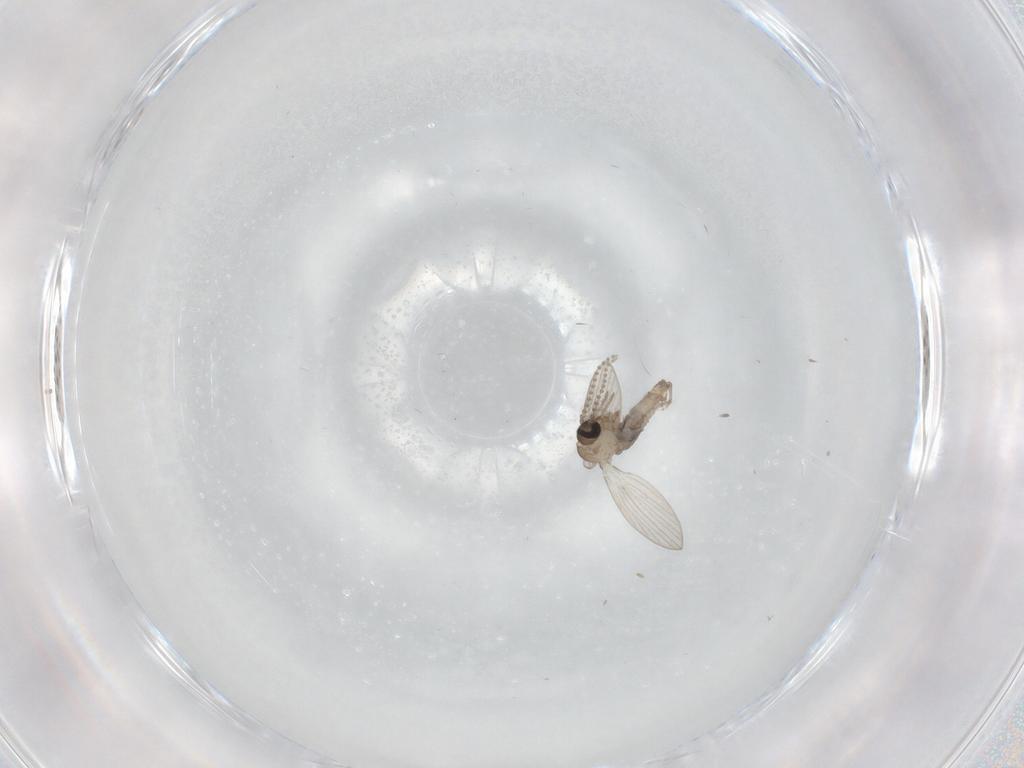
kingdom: Animalia
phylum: Arthropoda
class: Insecta
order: Diptera
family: Psychodidae
